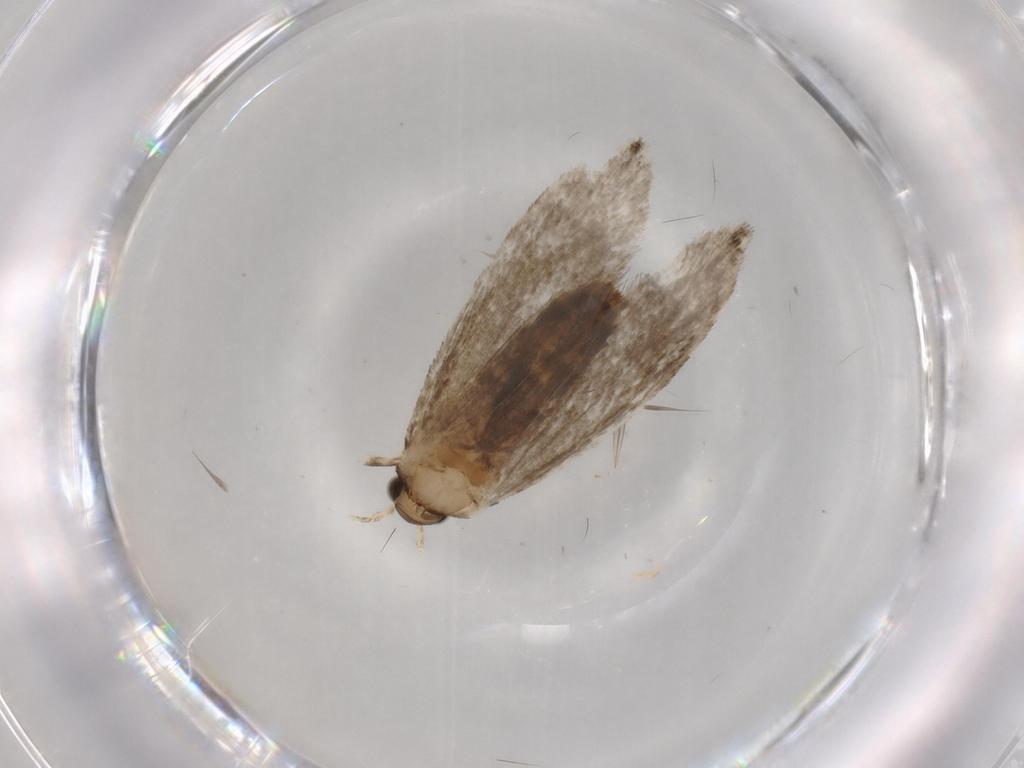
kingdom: Animalia
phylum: Arthropoda
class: Insecta
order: Lepidoptera
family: Tineidae
